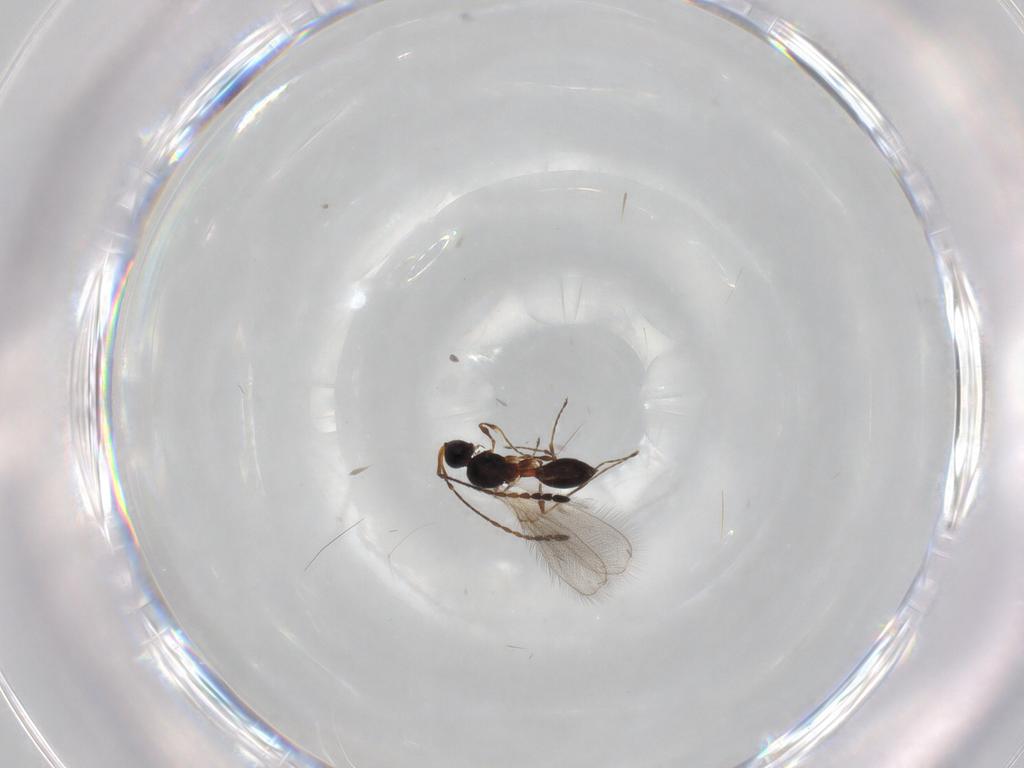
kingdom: Animalia
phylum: Arthropoda
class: Insecta
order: Hymenoptera
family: Diapriidae
